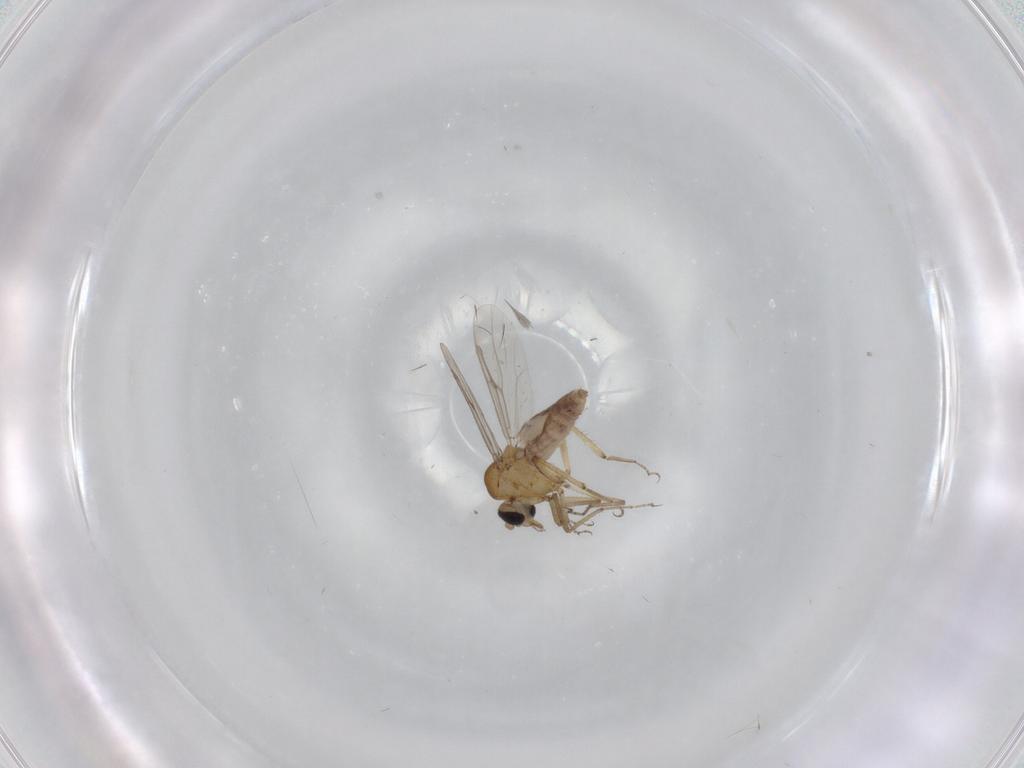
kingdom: Animalia
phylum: Arthropoda
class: Insecta
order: Diptera
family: Ceratopogonidae
